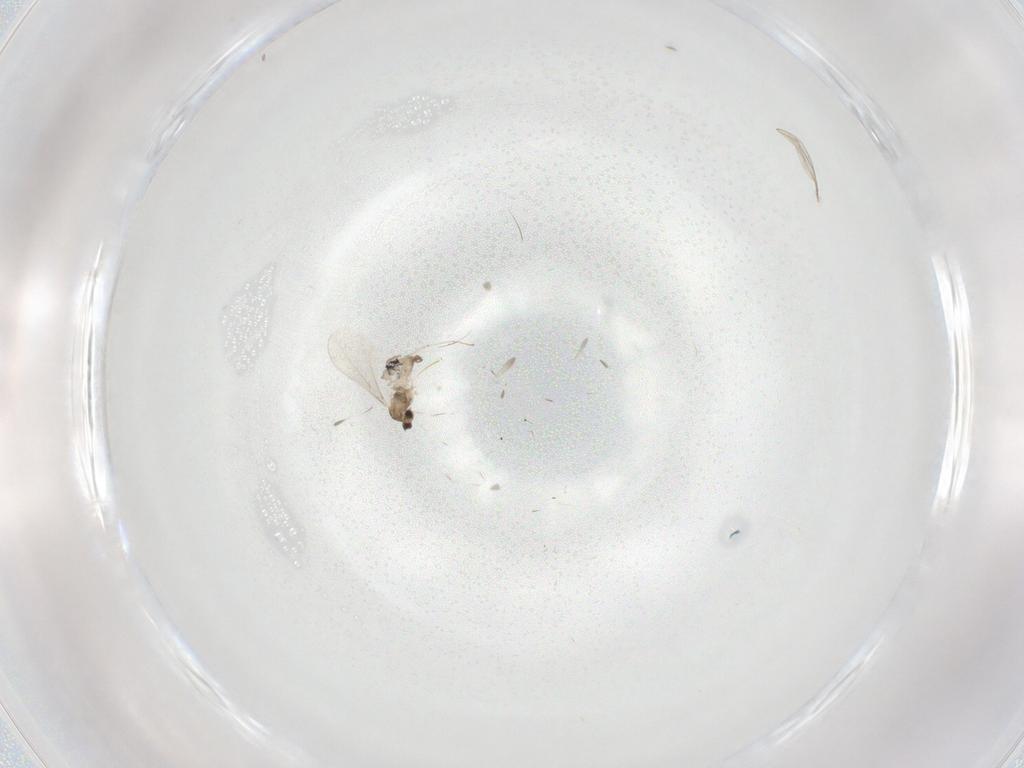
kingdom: Animalia
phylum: Arthropoda
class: Insecta
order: Diptera
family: Cecidomyiidae
